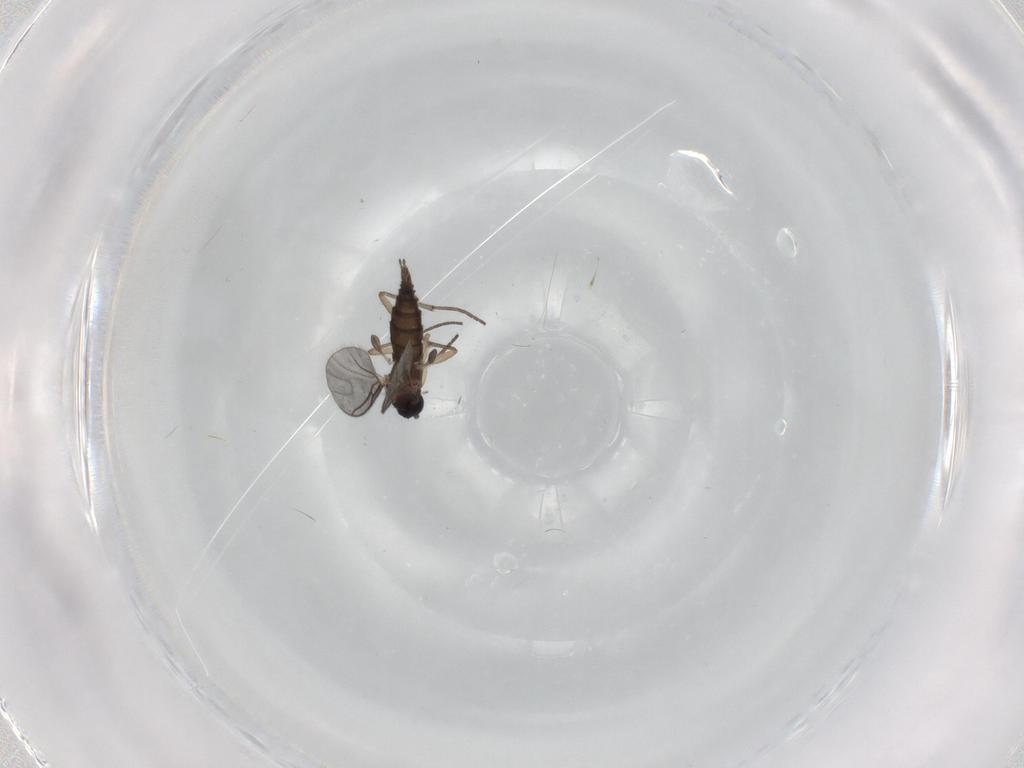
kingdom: Animalia
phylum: Arthropoda
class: Insecta
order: Diptera
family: Sciaridae
